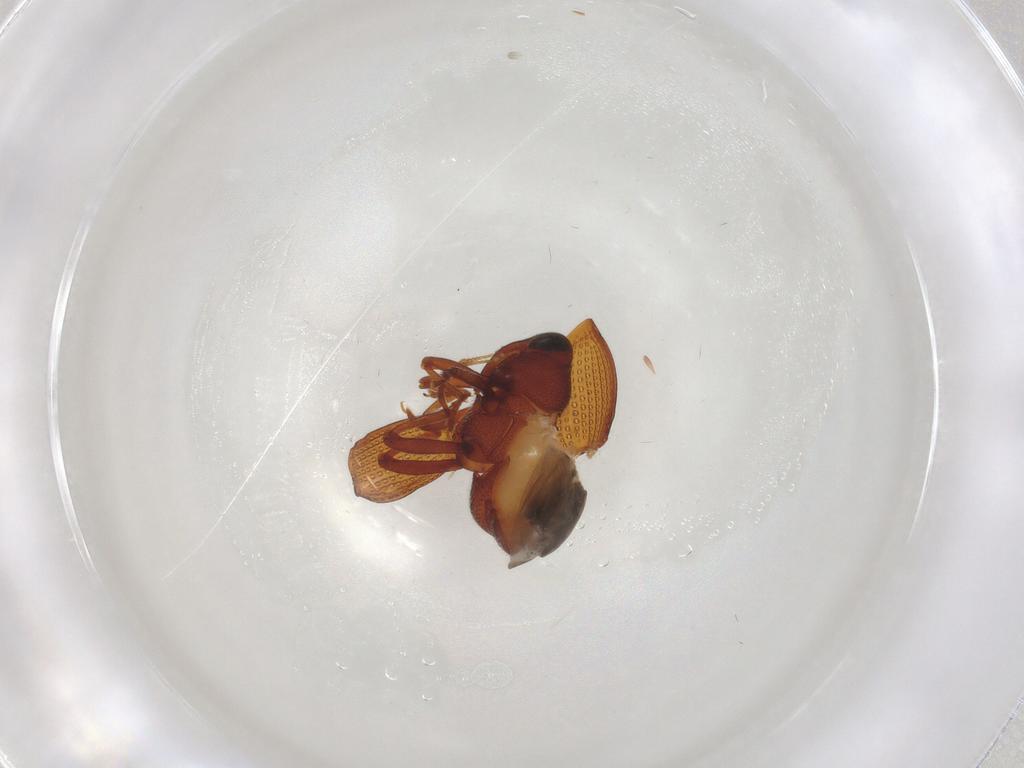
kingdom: Animalia
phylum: Arthropoda
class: Insecta
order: Coleoptera
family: Curculionidae
